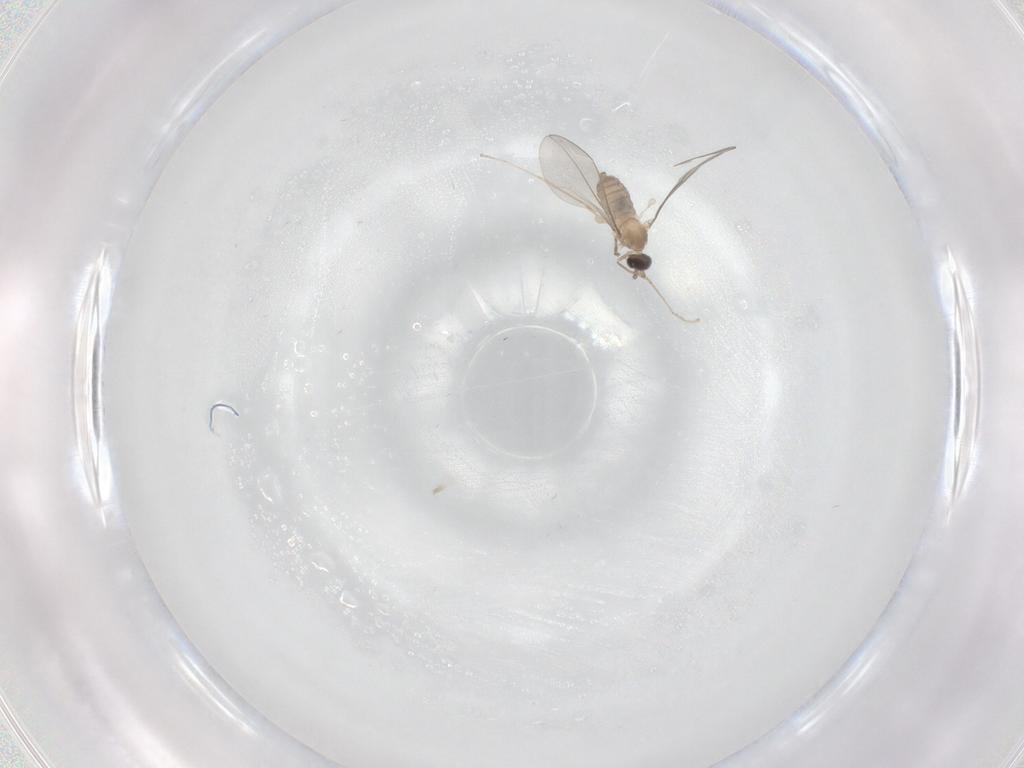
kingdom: Animalia
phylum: Arthropoda
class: Insecta
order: Diptera
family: Cecidomyiidae
